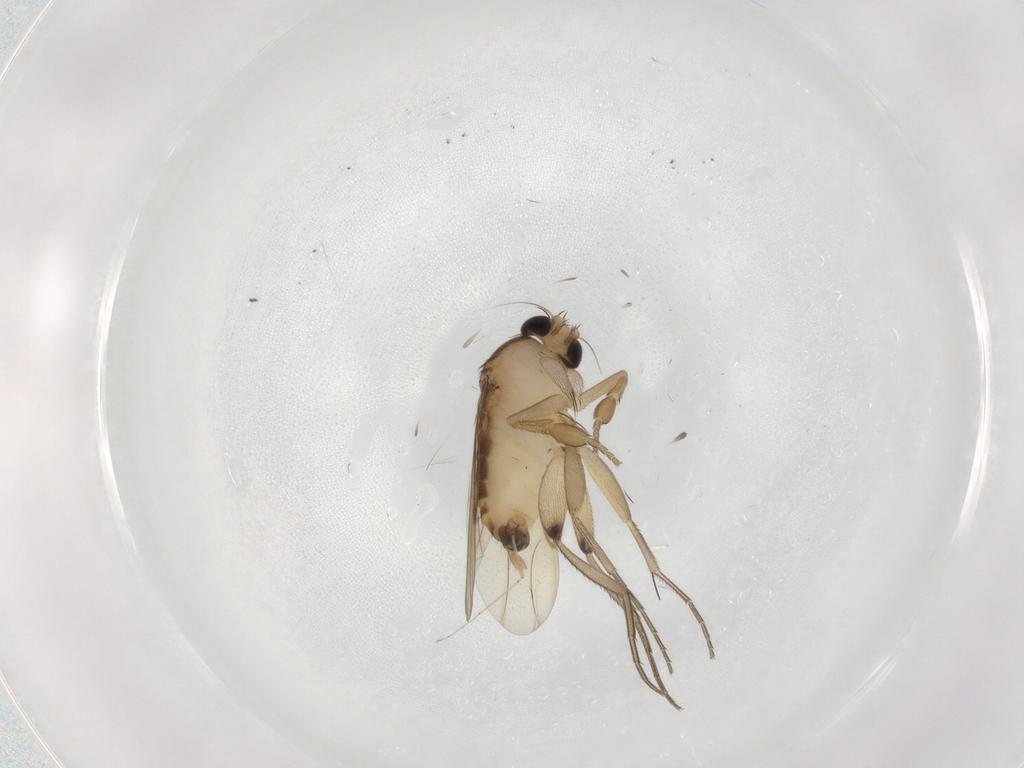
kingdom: Animalia
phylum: Arthropoda
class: Insecta
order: Diptera
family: Phoridae
